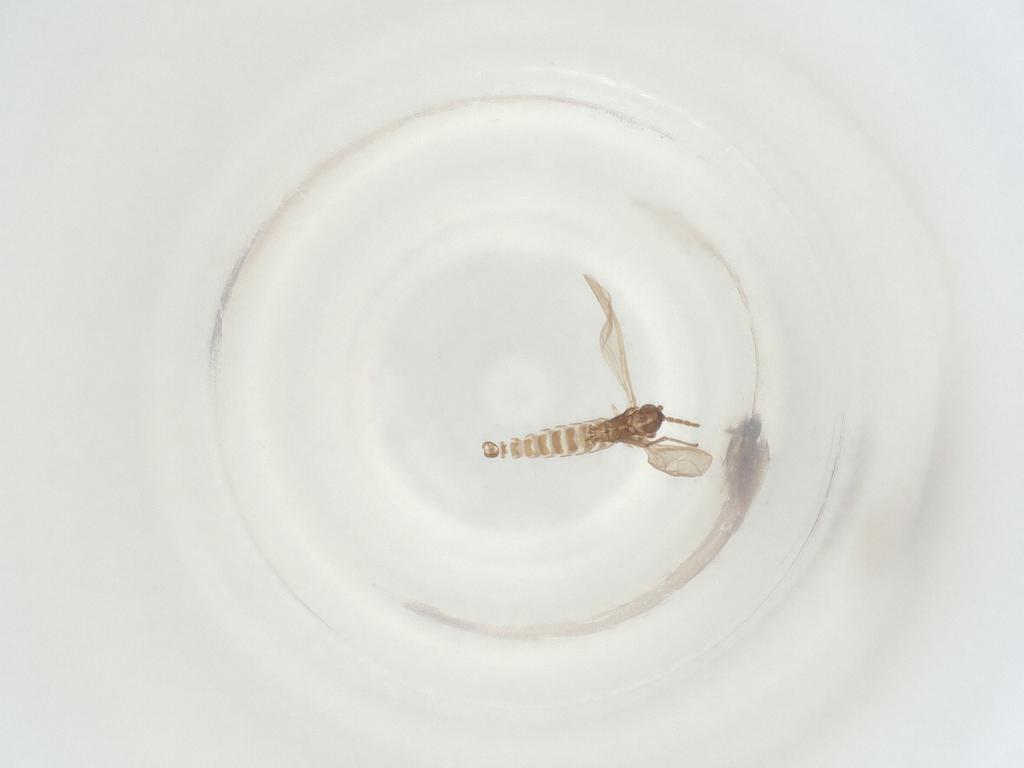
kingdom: Animalia
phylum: Arthropoda
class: Insecta
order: Diptera
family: Sciaridae
